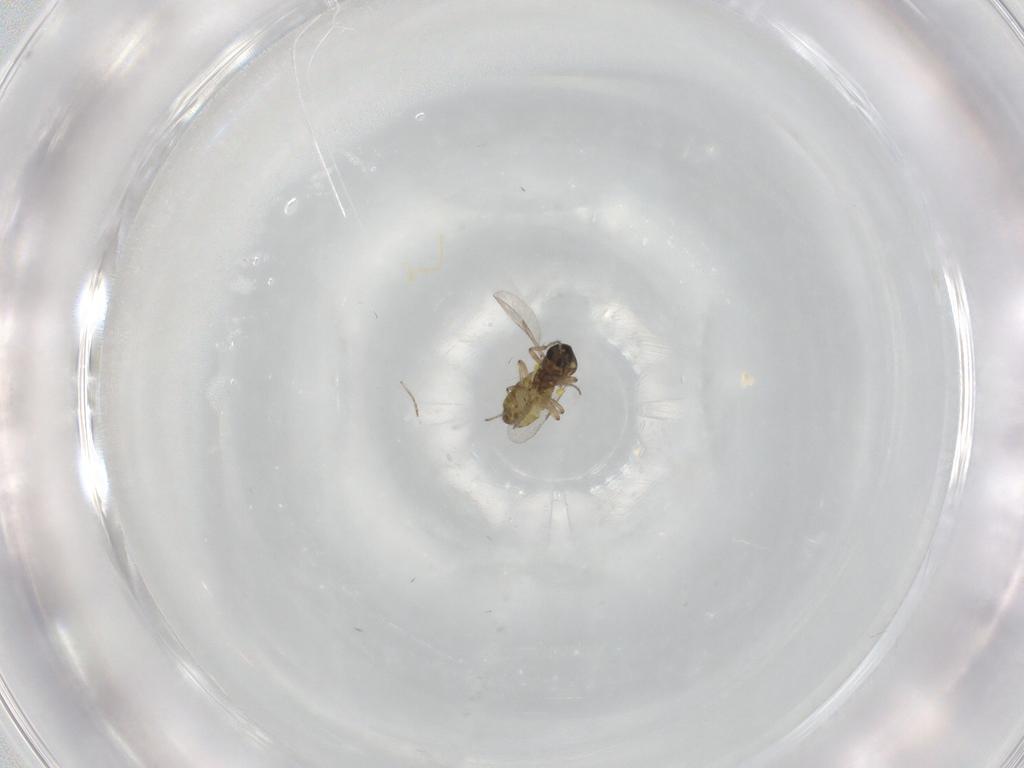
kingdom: Animalia
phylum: Arthropoda
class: Insecta
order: Diptera
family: Ceratopogonidae
